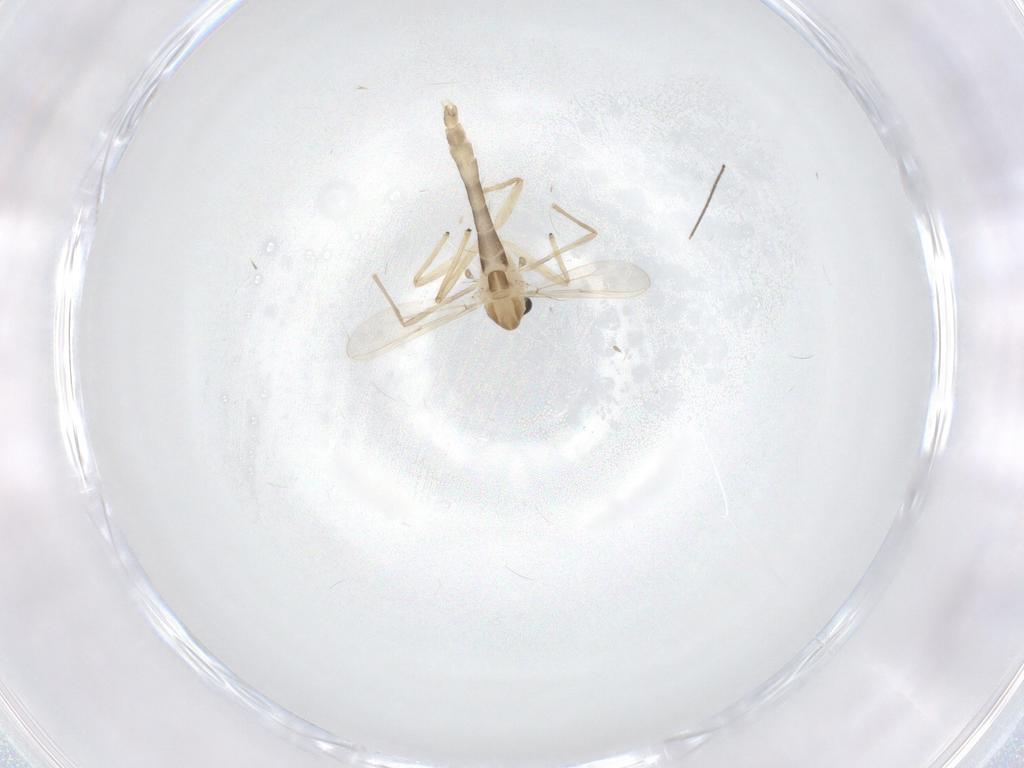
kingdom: Animalia
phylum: Arthropoda
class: Insecta
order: Diptera
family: Chironomidae
